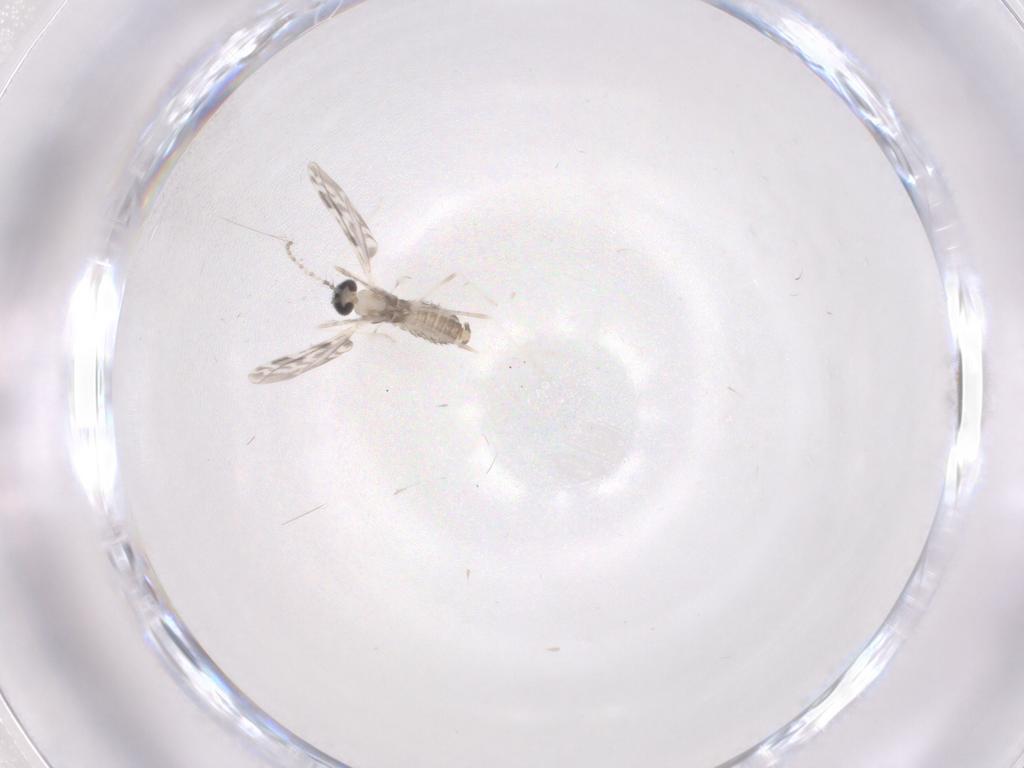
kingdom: Animalia
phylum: Arthropoda
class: Insecta
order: Diptera
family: Cecidomyiidae
